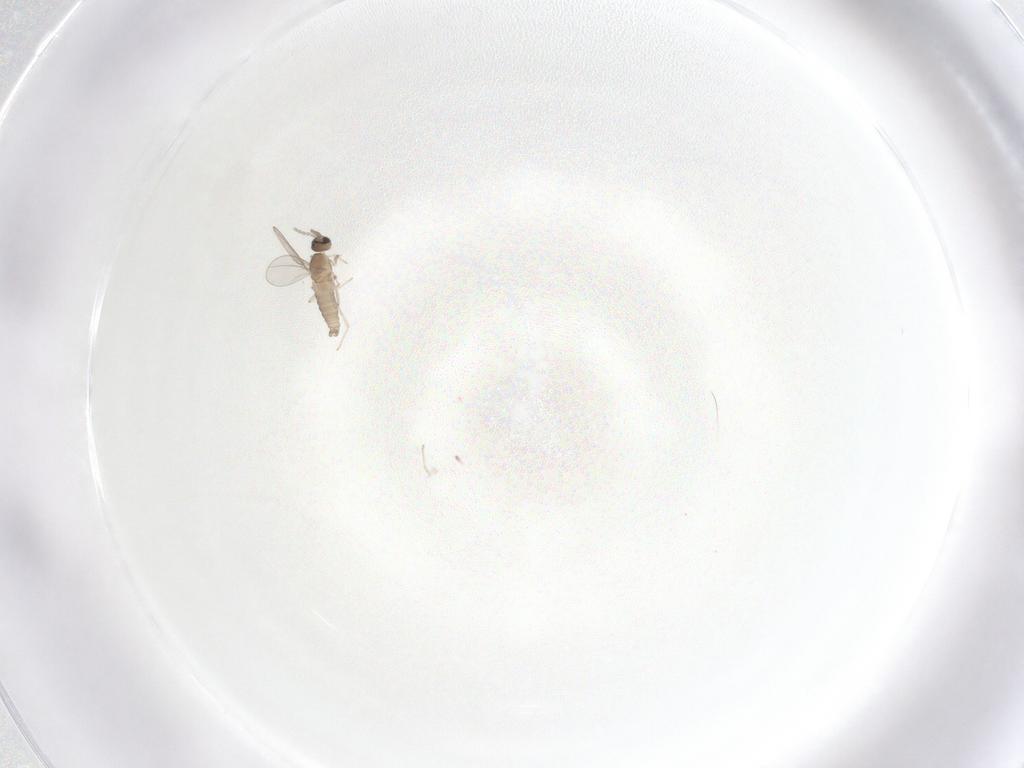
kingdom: Animalia
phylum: Arthropoda
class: Insecta
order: Diptera
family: Cecidomyiidae
